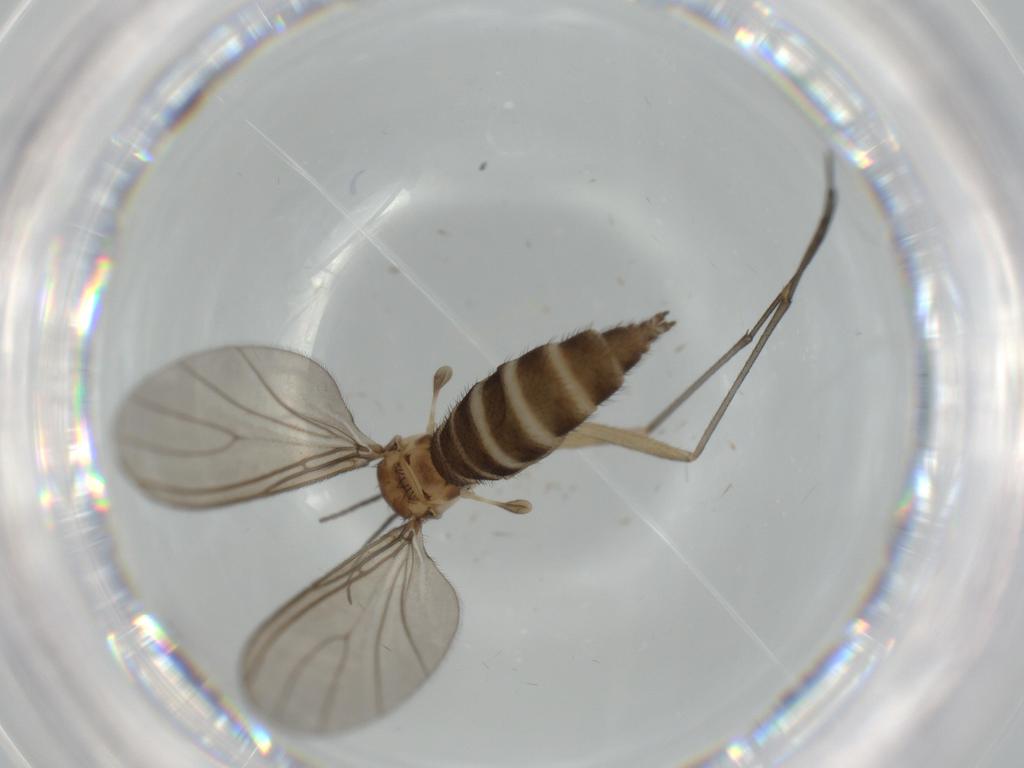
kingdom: Animalia
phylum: Arthropoda
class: Insecta
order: Diptera
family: Sciaridae
